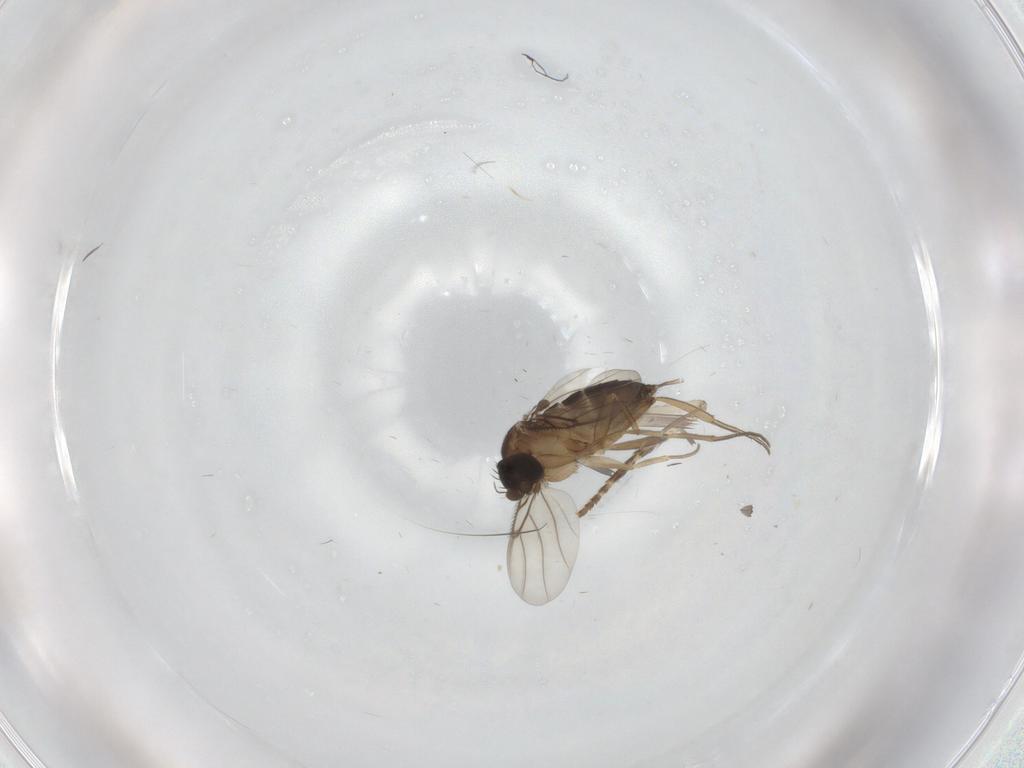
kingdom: Animalia
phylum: Arthropoda
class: Insecta
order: Diptera
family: Psychodidae
